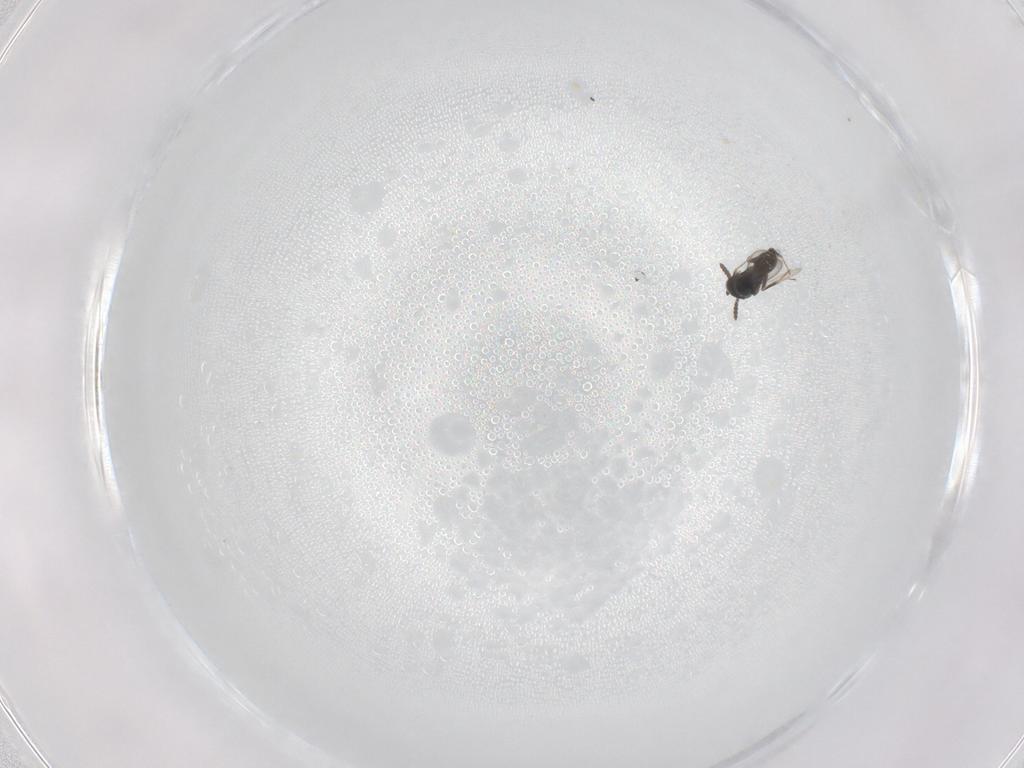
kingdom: Animalia
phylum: Arthropoda
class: Insecta
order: Hymenoptera
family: Scelionidae
